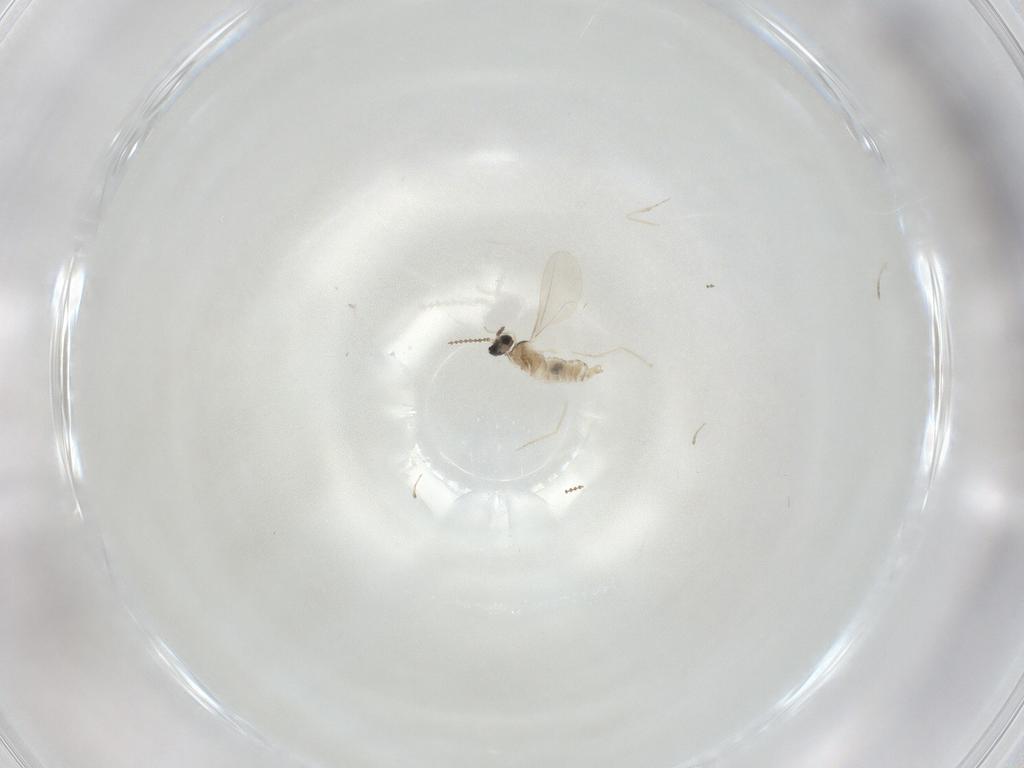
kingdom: Animalia
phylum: Arthropoda
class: Insecta
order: Diptera
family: Cecidomyiidae
